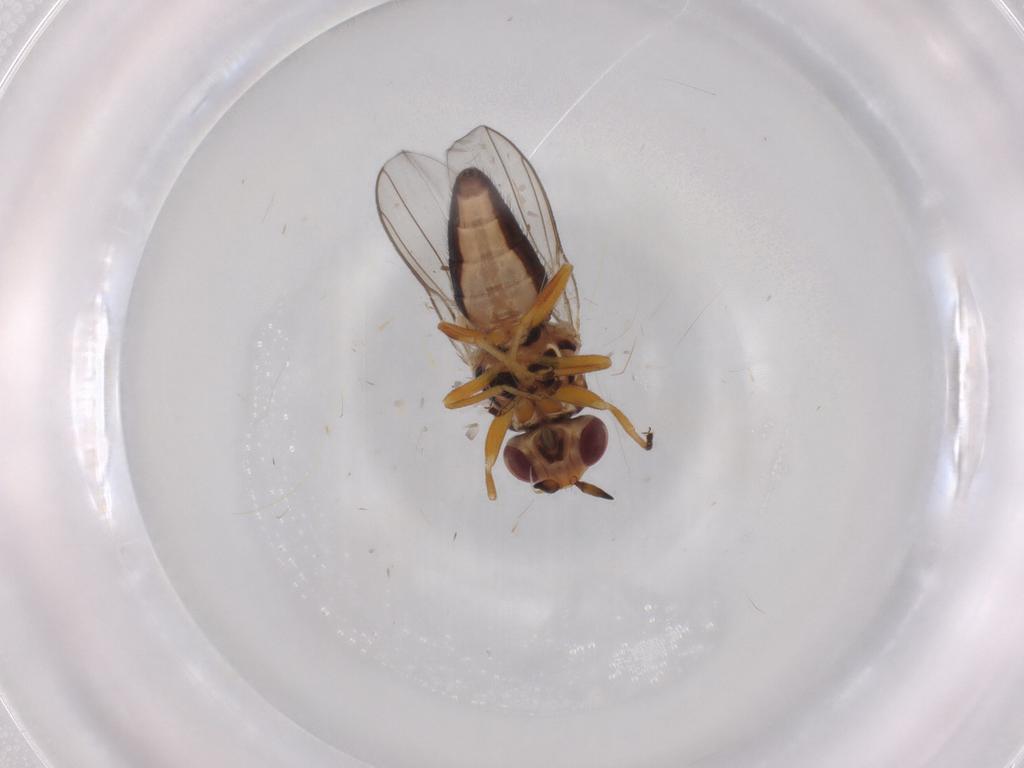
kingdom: Animalia
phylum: Arthropoda
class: Insecta
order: Diptera
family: Chloropidae
